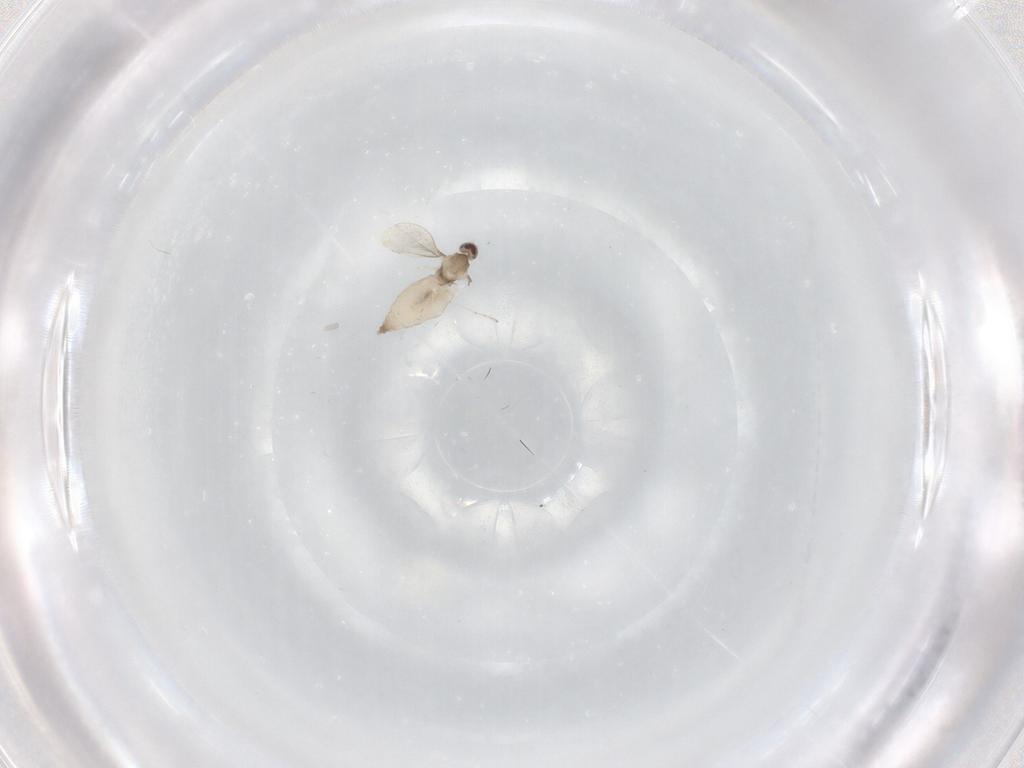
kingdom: Animalia
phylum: Arthropoda
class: Insecta
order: Diptera
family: Cecidomyiidae
